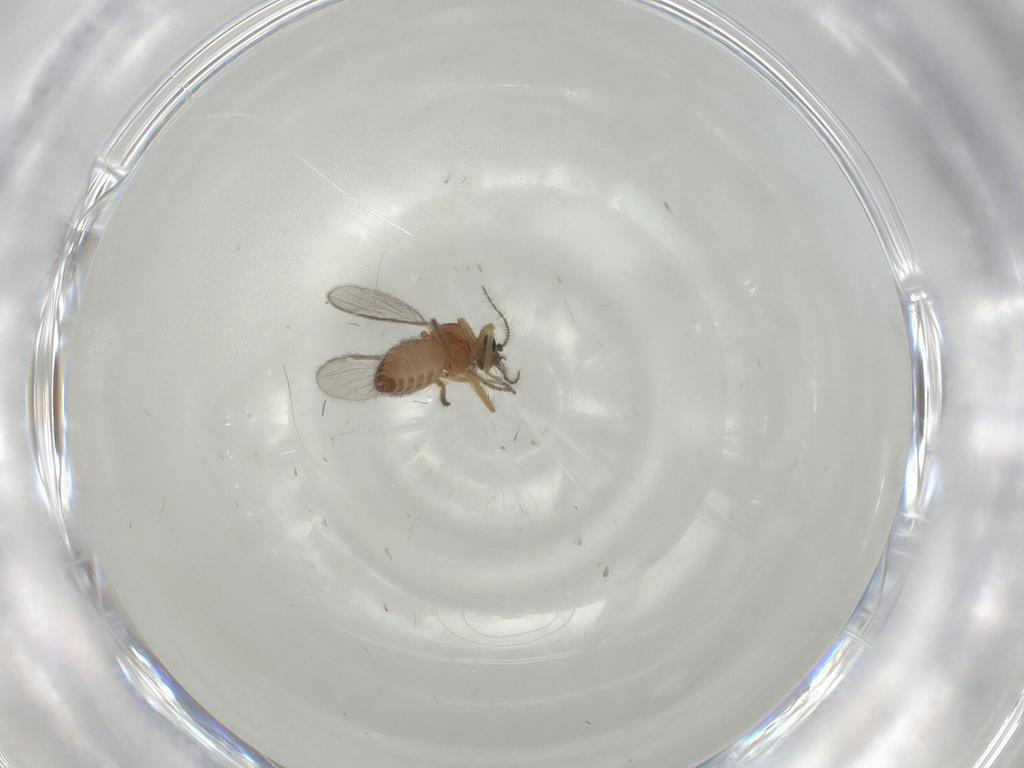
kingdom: Animalia
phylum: Arthropoda
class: Insecta
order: Diptera
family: Ceratopogonidae
